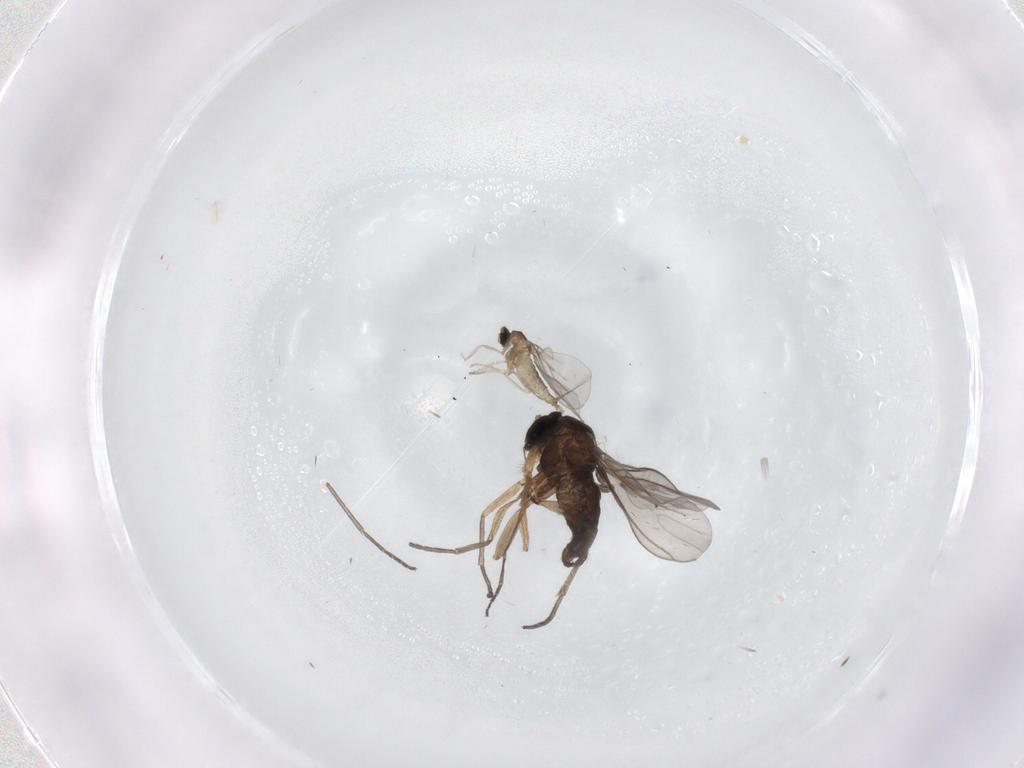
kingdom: Animalia
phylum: Arthropoda
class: Insecta
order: Diptera
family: Sciaridae
